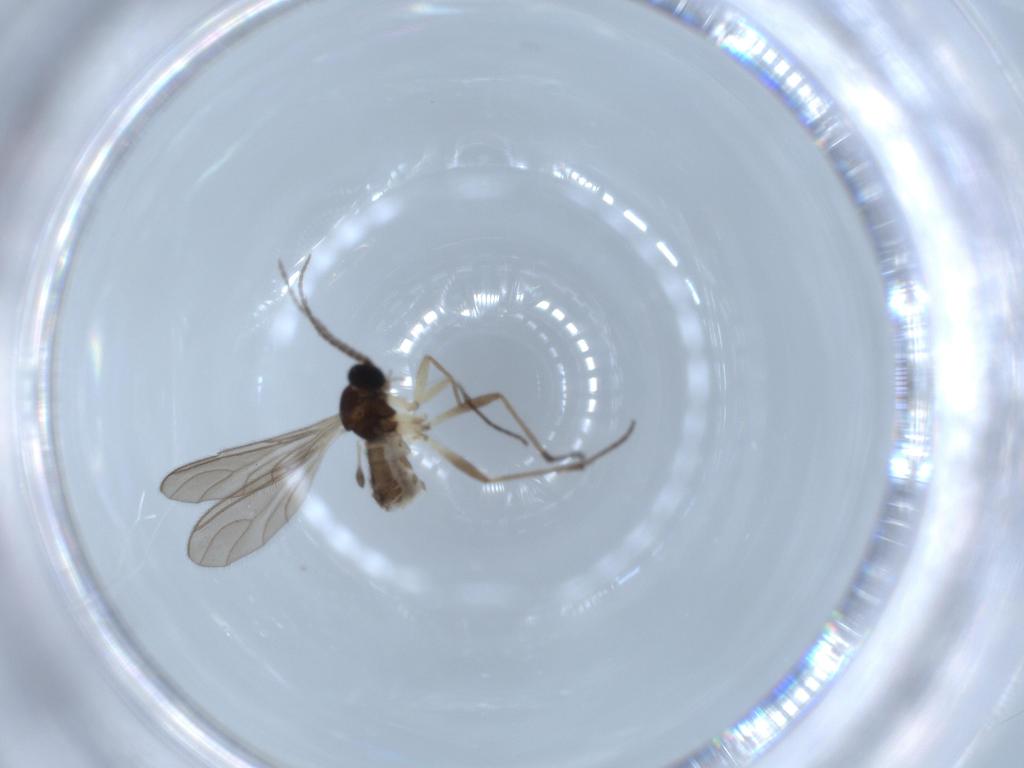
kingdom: Animalia
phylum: Arthropoda
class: Insecta
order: Diptera
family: Sciaridae
